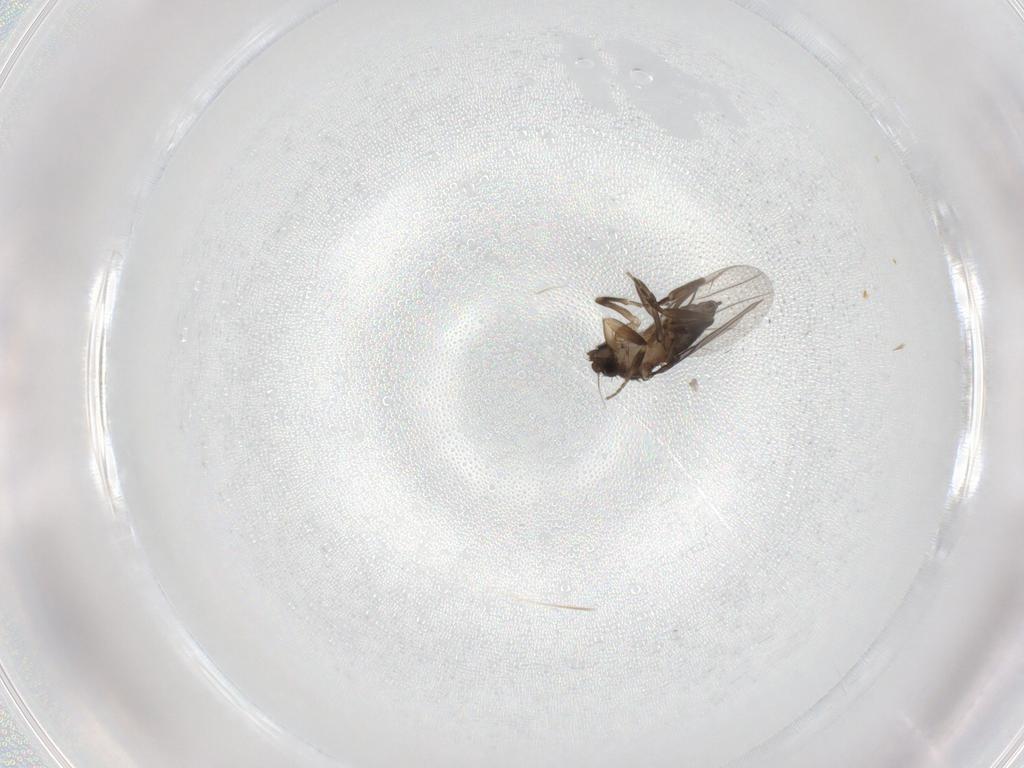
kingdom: Animalia
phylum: Arthropoda
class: Insecta
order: Diptera
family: Phoridae
